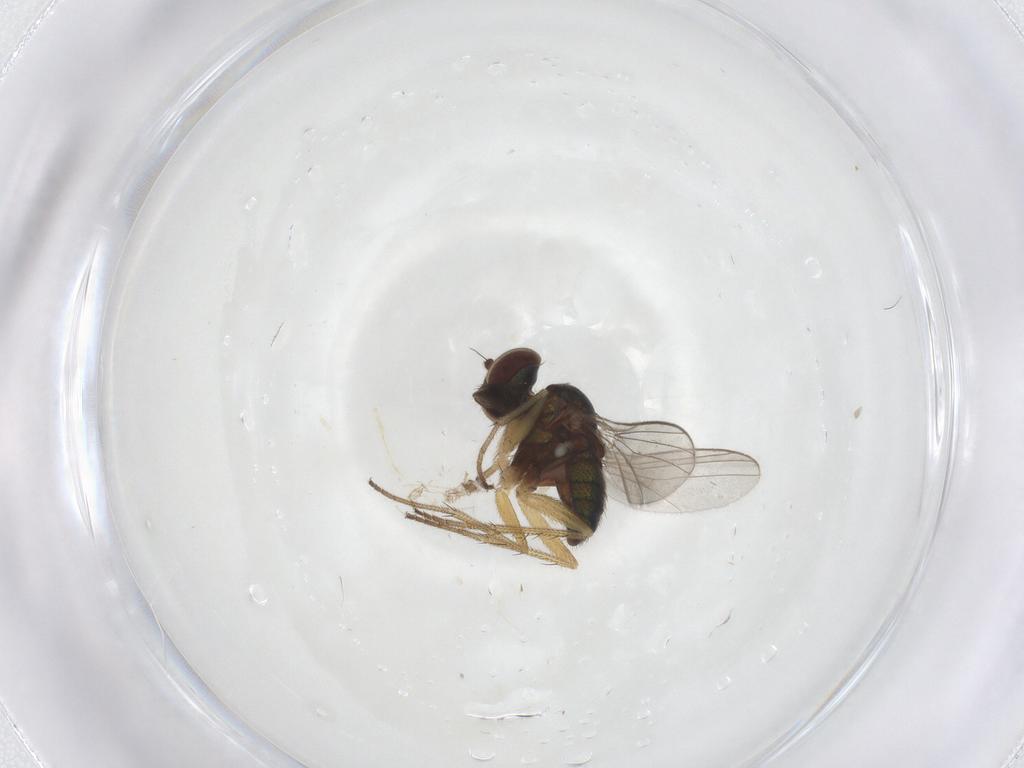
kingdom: Animalia
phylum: Arthropoda
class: Insecta
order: Diptera
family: Dolichopodidae
